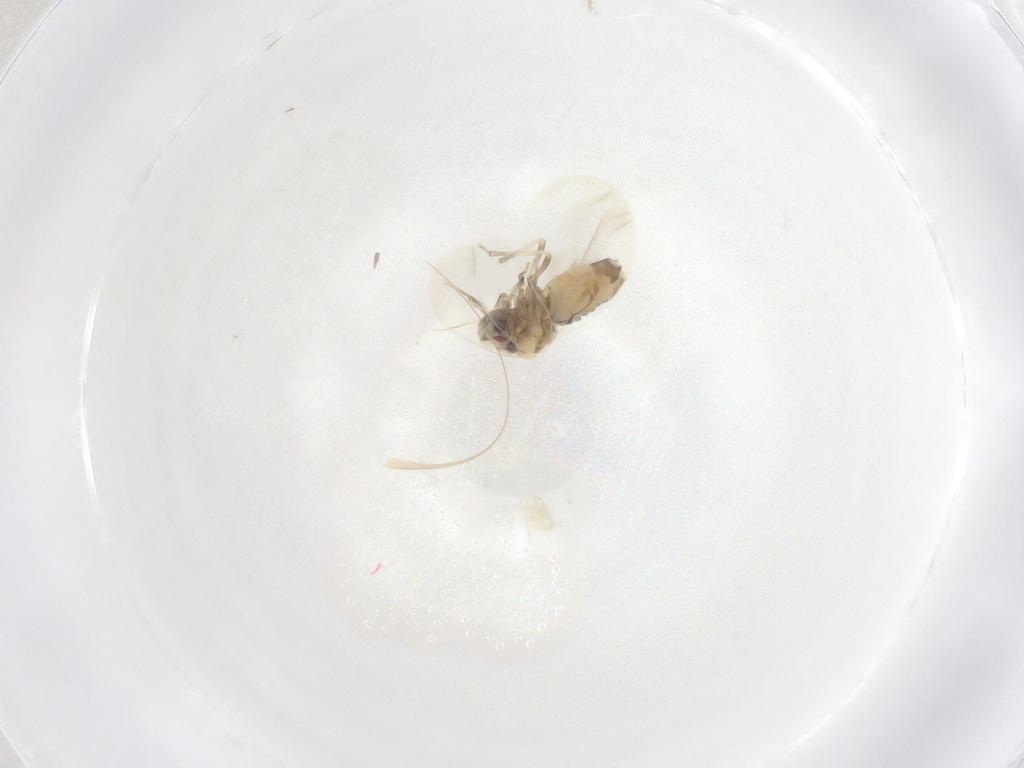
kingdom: Animalia
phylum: Arthropoda
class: Insecta
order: Hemiptera
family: Aleyrodidae
